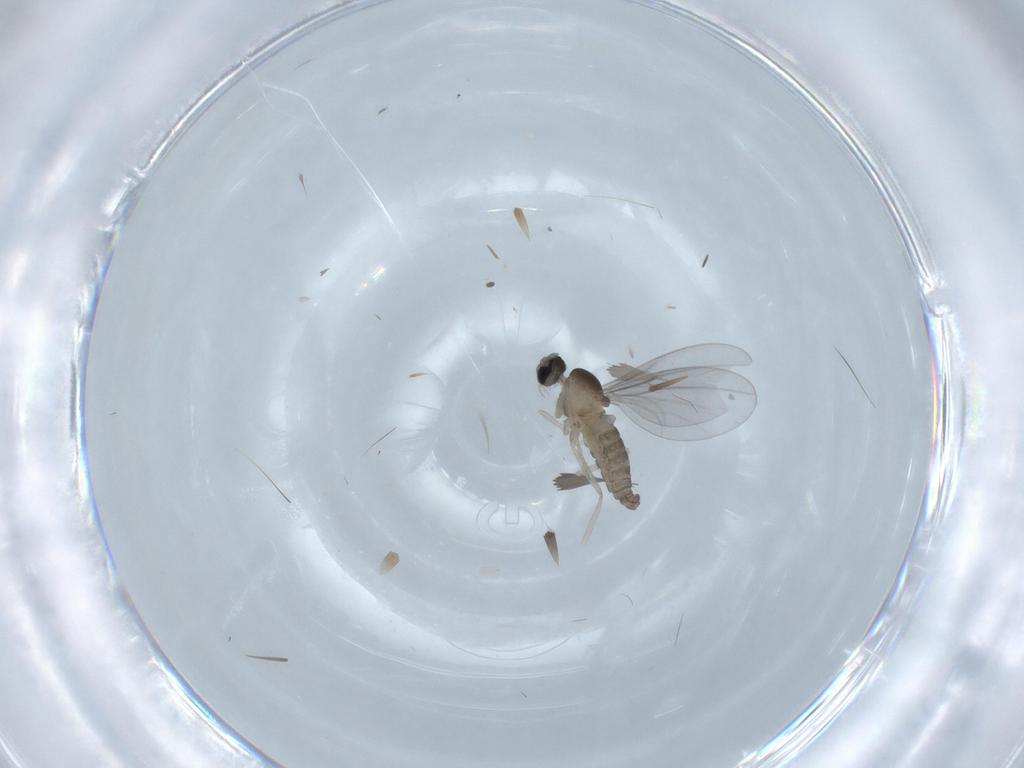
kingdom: Animalia
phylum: Arthropoda
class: Insecta
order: Diptera
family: Cecidomyiidae
